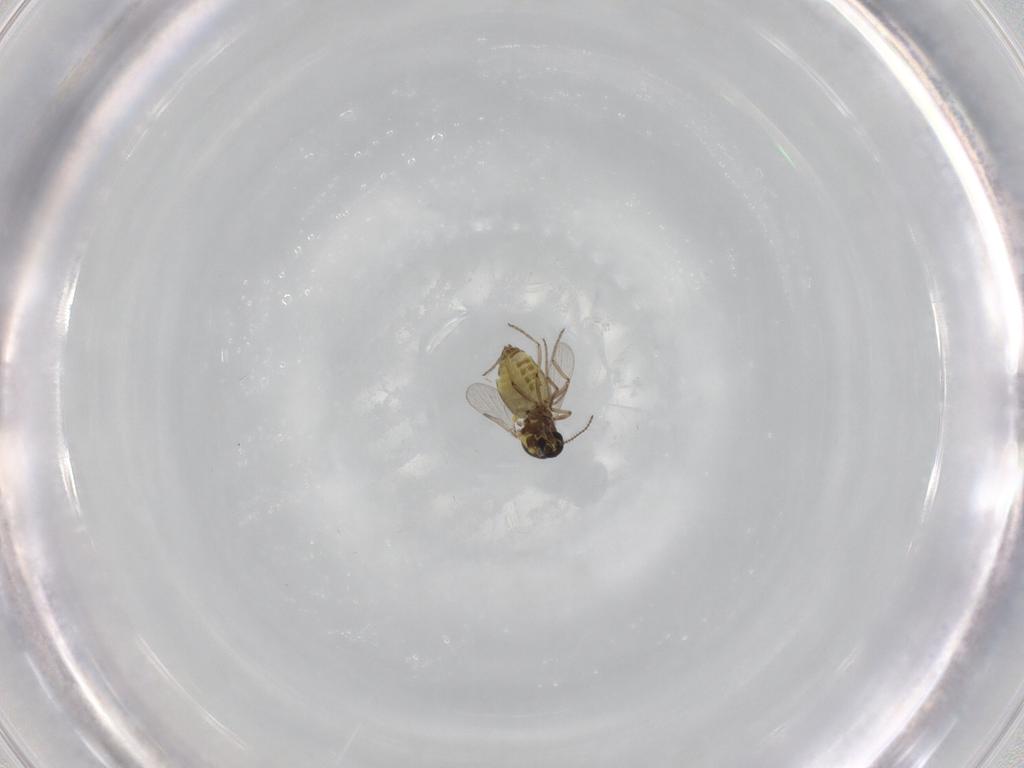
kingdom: Animalia
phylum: Arthropoda
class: Insecta
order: Diptera
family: Ceratopogonidae
